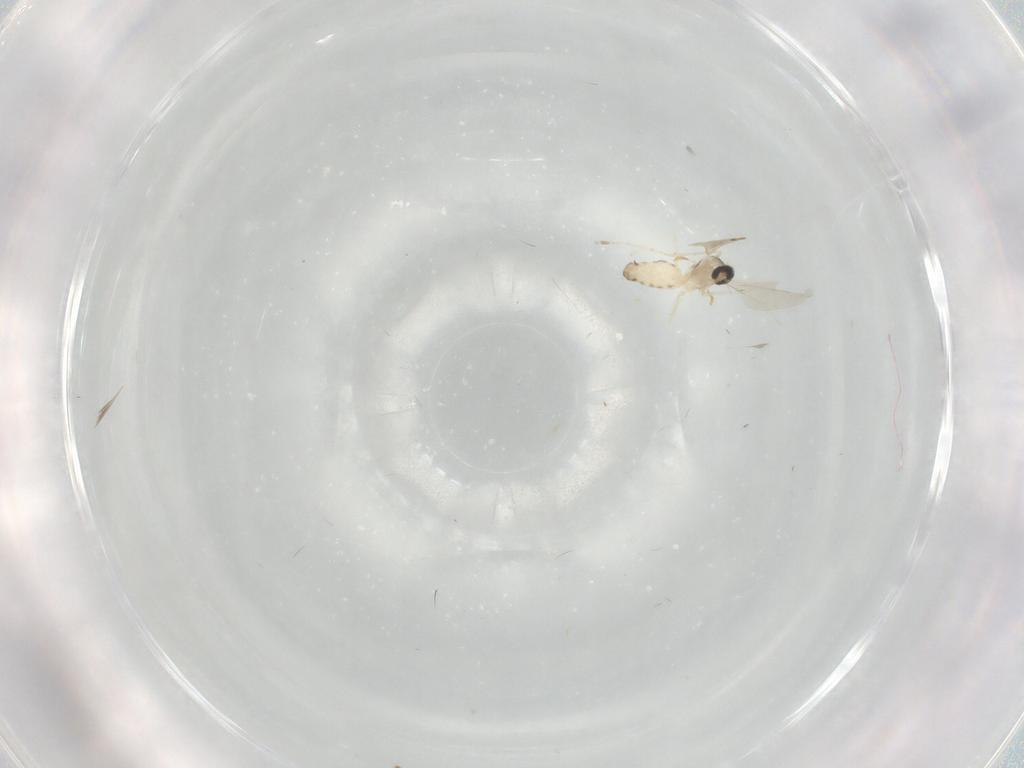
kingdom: Animalia
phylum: Arthropoda
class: Insecta
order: Diptera
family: Cecidomyiidae
